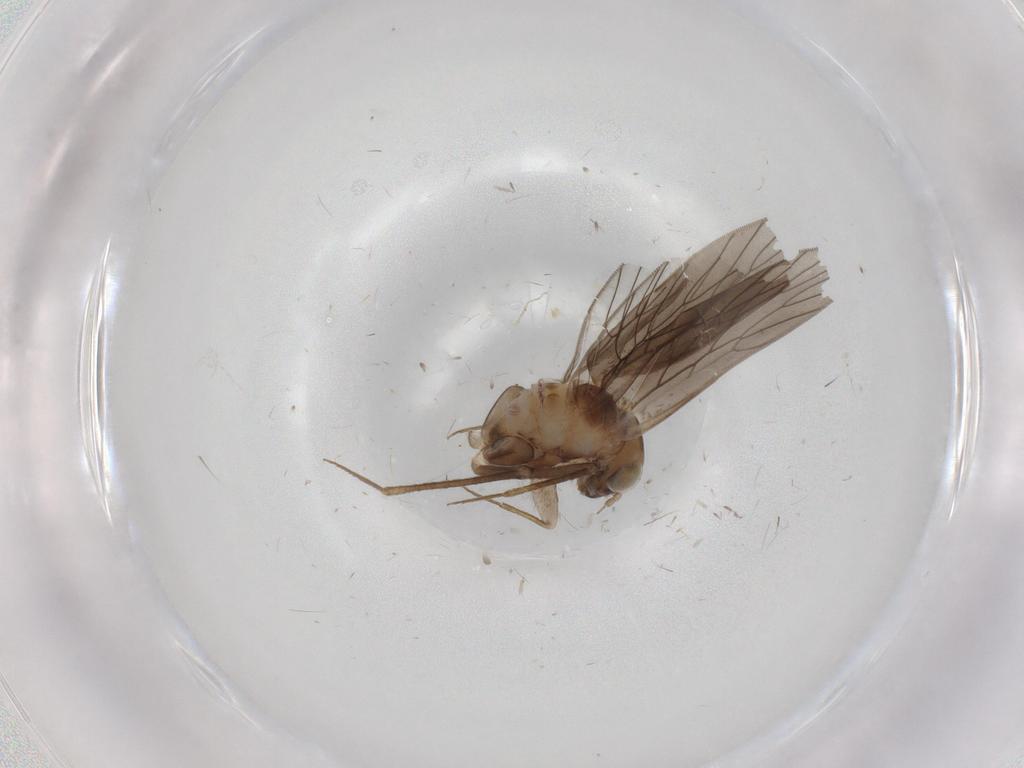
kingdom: Animalia
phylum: Arthropoda
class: Insecta
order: Psocodea
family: Lepidopsocidae
